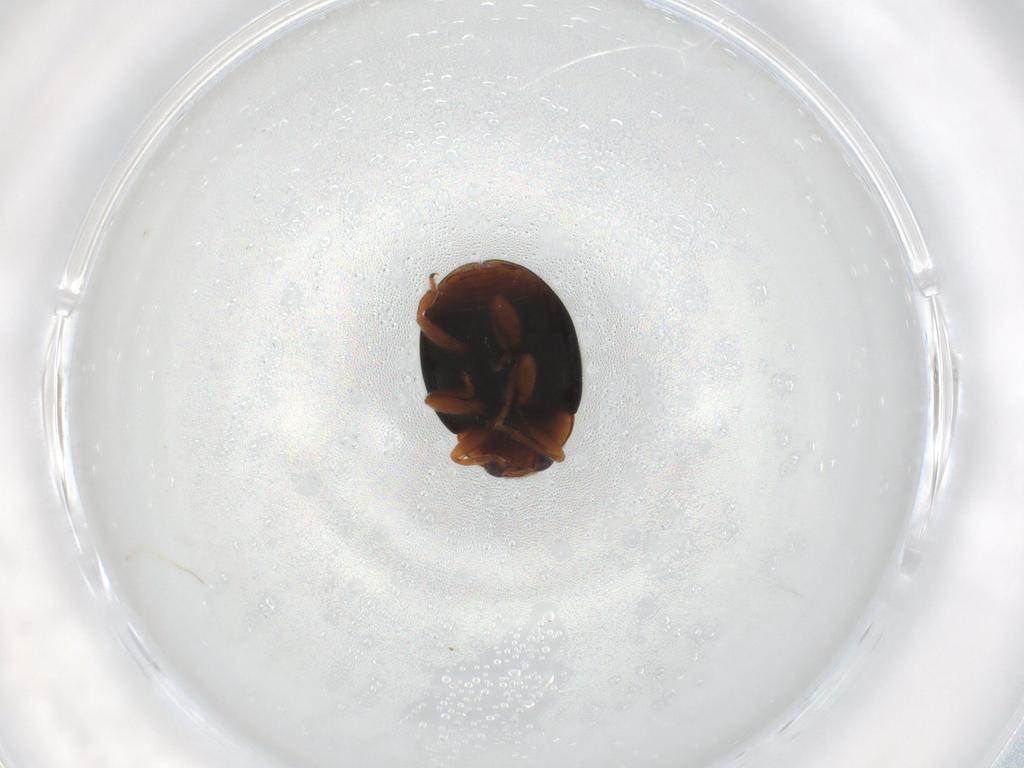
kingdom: Animalia
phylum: Arthropoda
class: Insecta
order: Coleoptera
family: Coccinellidae
